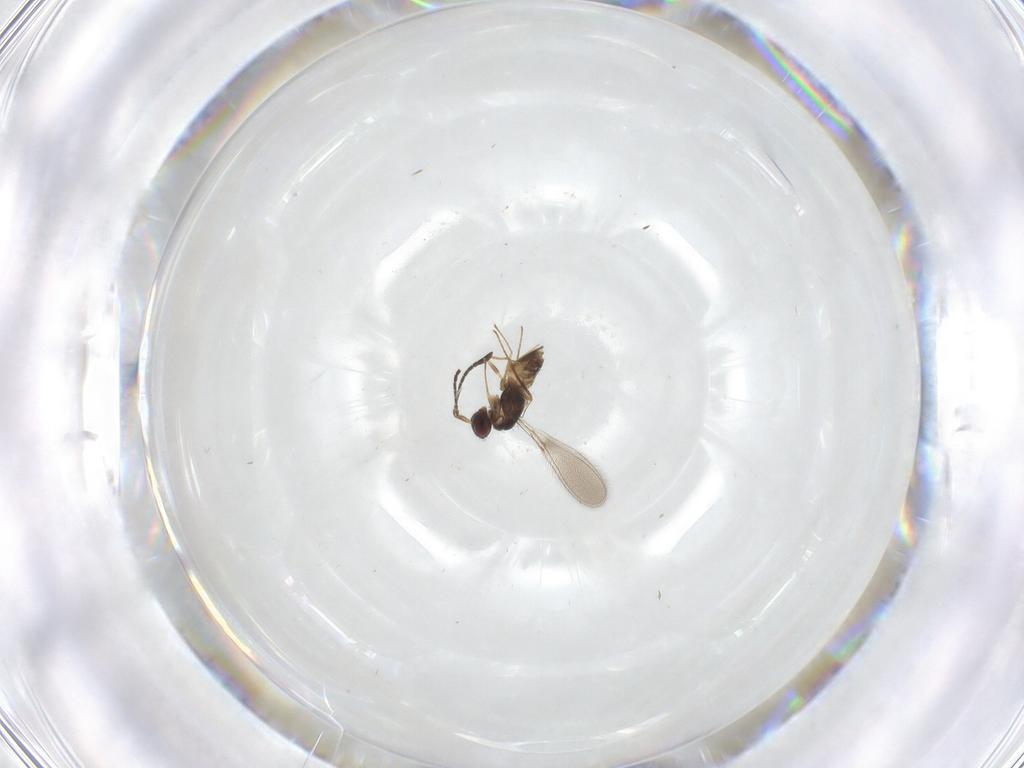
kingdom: Animalia
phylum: Arthropoda
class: Insecta
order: Hymenoptera
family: Mymaridae
